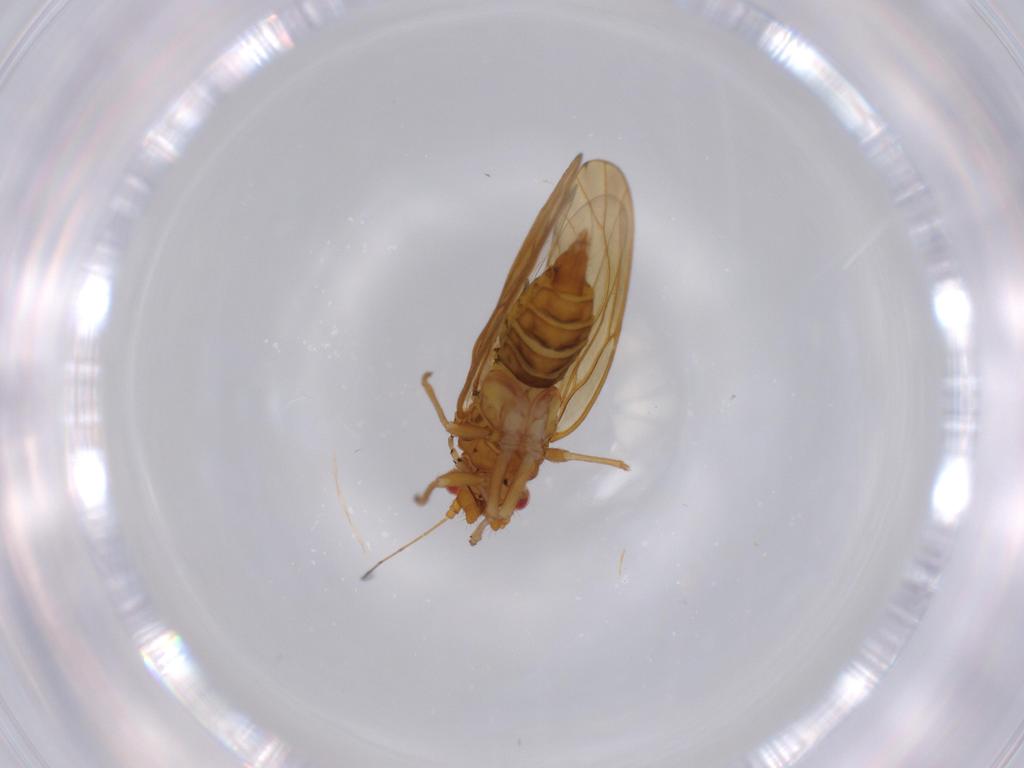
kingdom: Animalia
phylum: Arthropoda
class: Insecta
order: Hemiptera
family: Psylloidea_incertae_sedis
